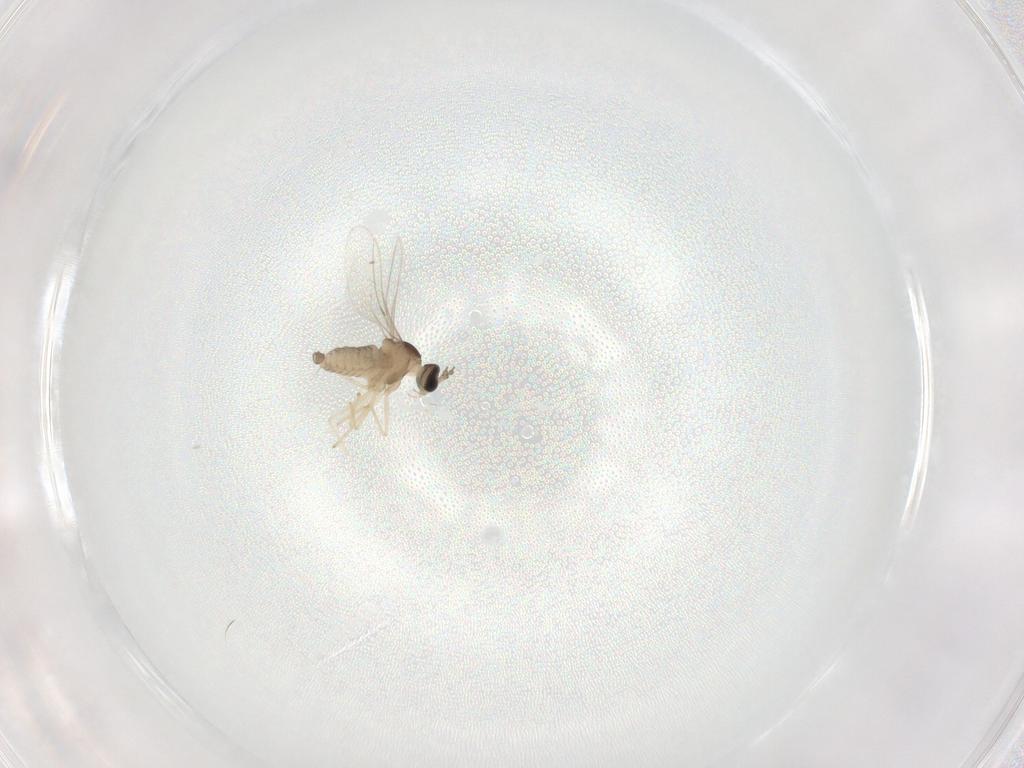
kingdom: Animalia
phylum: Arthropoda
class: Insecta
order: Diptera
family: Cecidomyiidae
